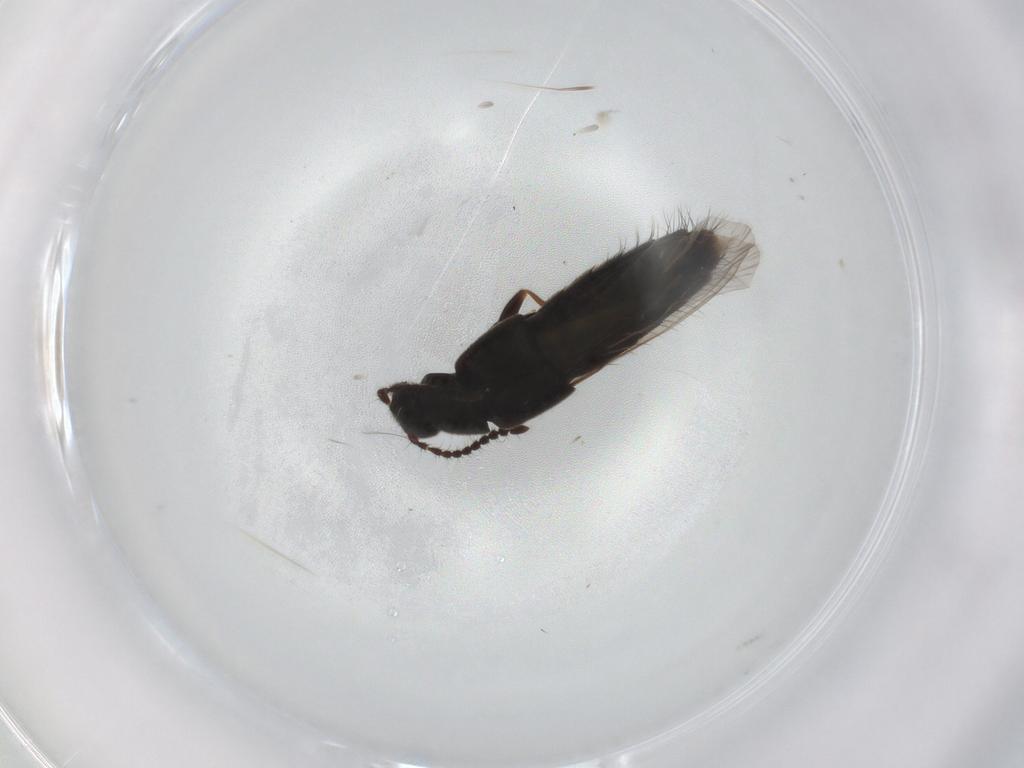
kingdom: Animalia
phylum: Arthropoda
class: Insecta
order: Coleoptera
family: Staphylinidae
